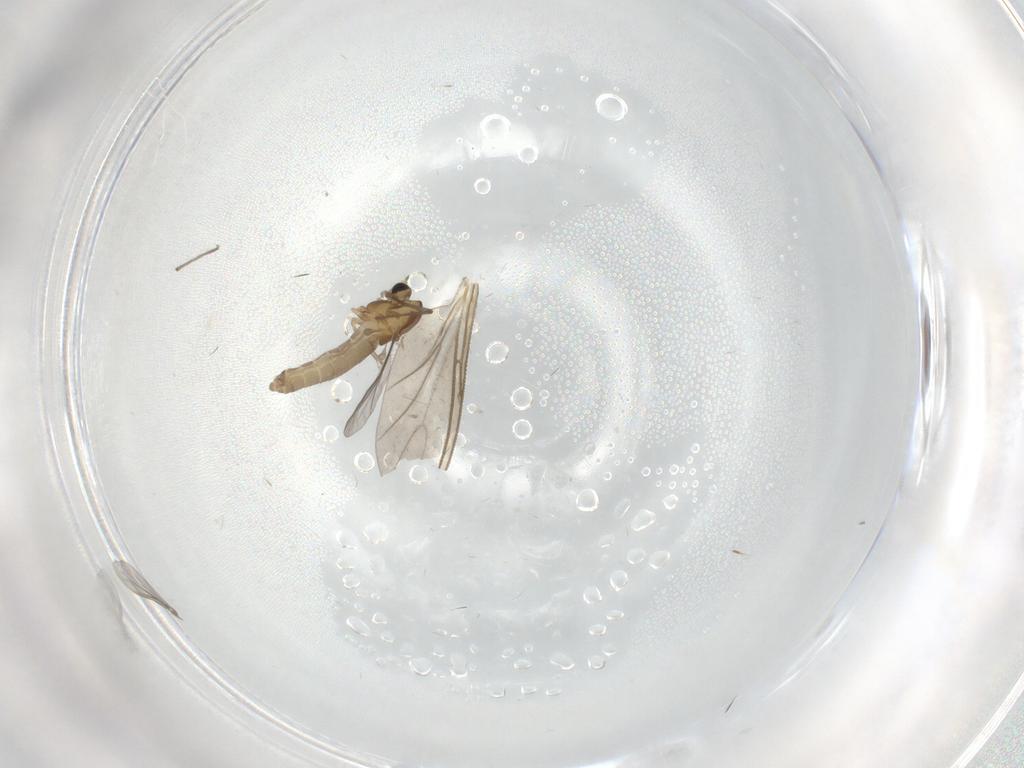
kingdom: Animalia
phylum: Arthropoda
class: Insecta
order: Diptera
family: Chironomidae
